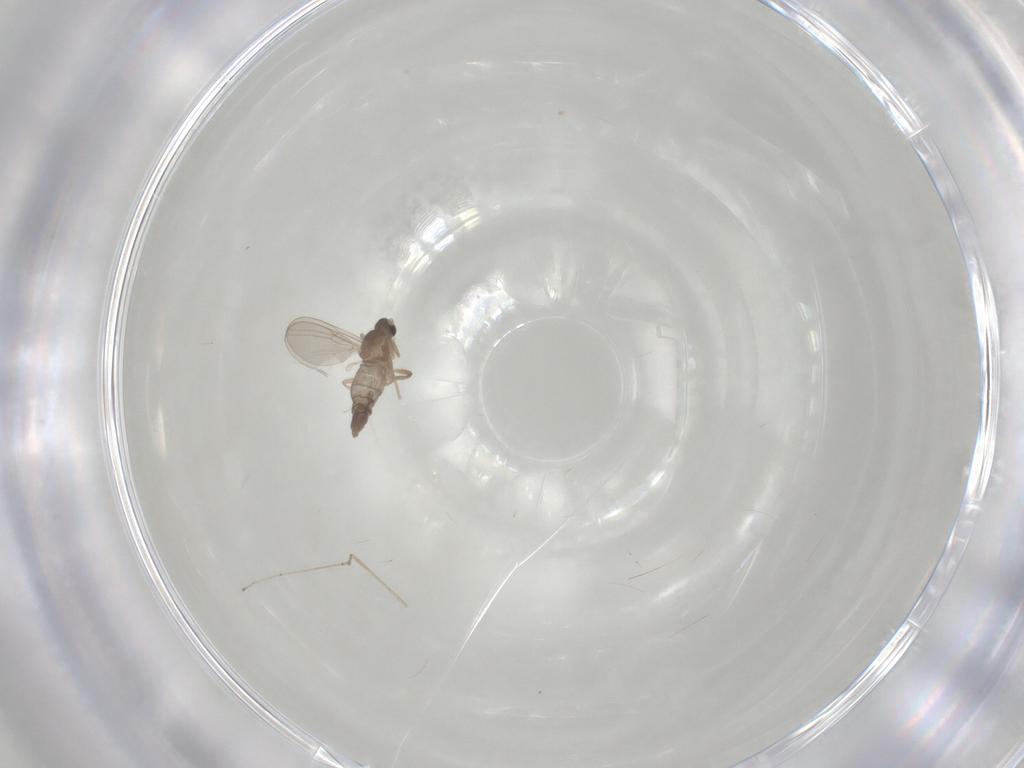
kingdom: Animalia
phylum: Arthropoda
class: Insecta
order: Diptera
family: Cecidomyiidae
